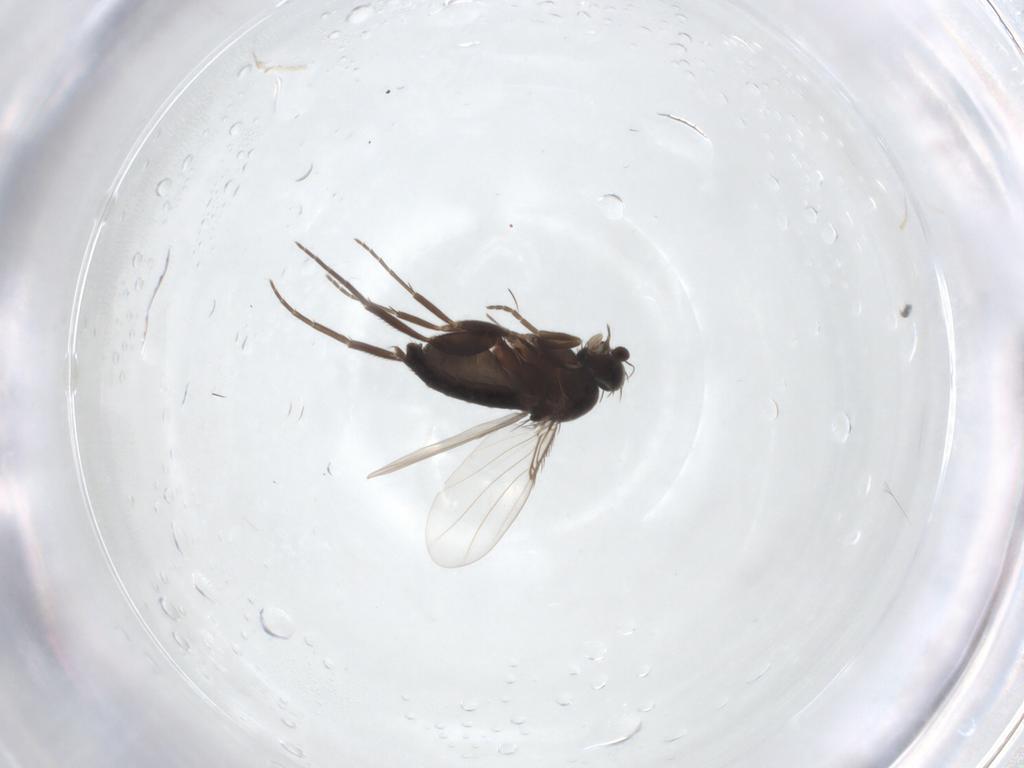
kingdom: Animalia
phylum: Arthropoda
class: Insecta
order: Diptera
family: Phoridae
